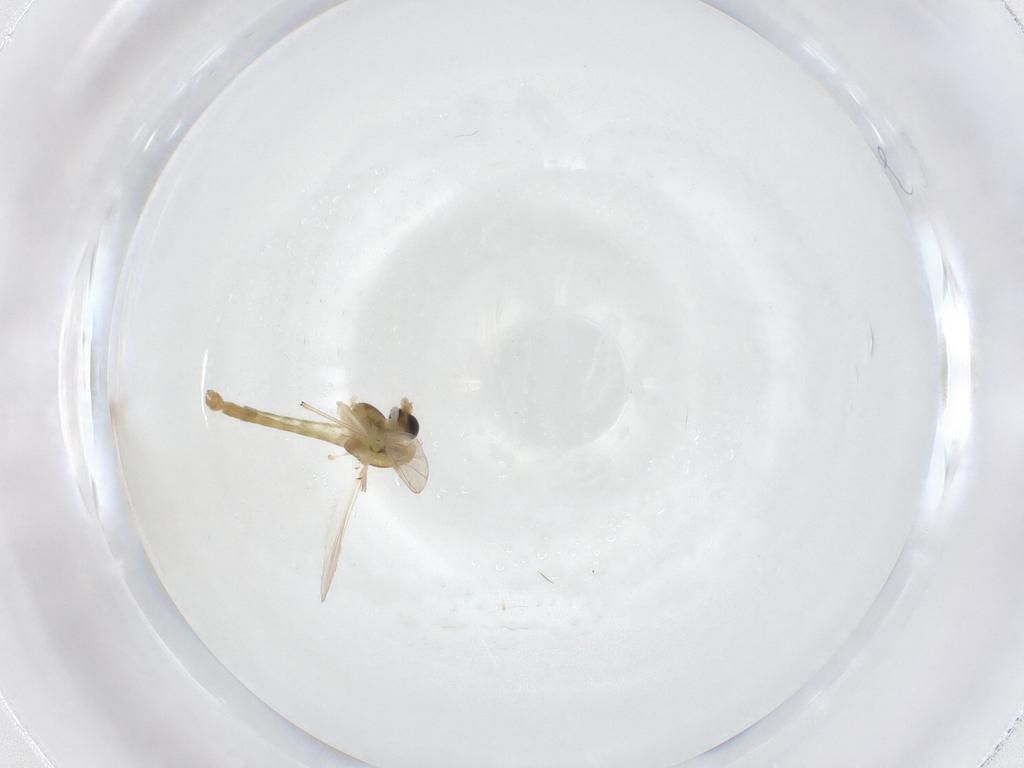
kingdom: Animalia
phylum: Arthropoda
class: Insecta
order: Diptera
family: Chironomidae
